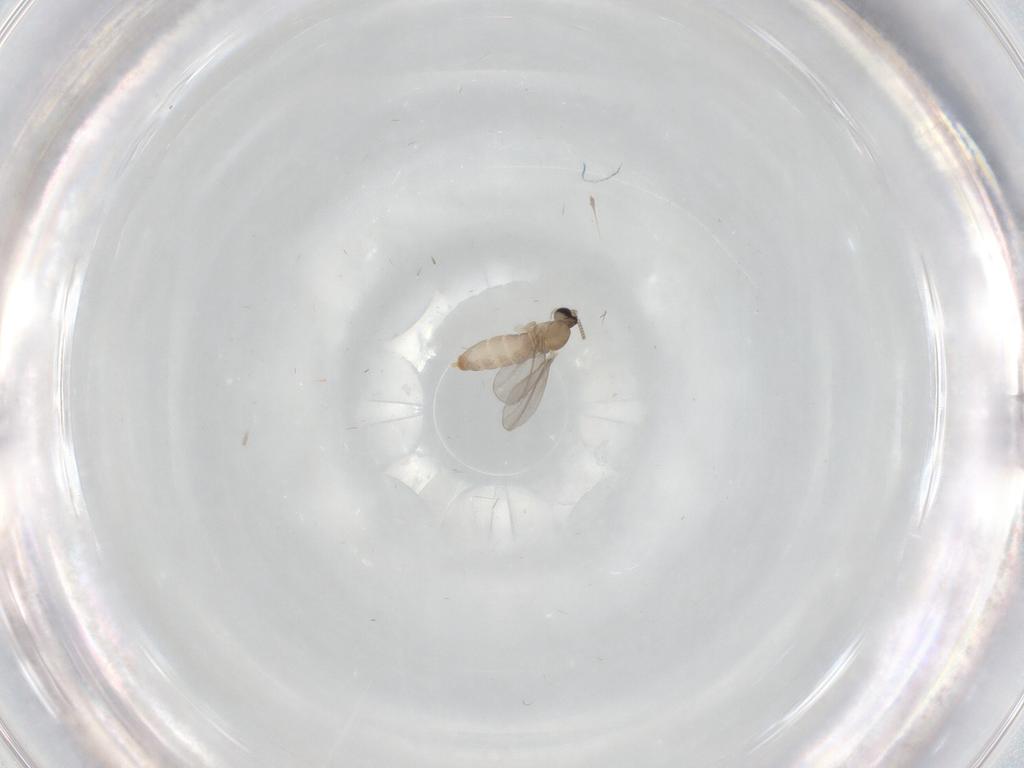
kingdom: Animalia
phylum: Arthropoda
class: Insecta
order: Diptera
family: Cecidomyiidae
